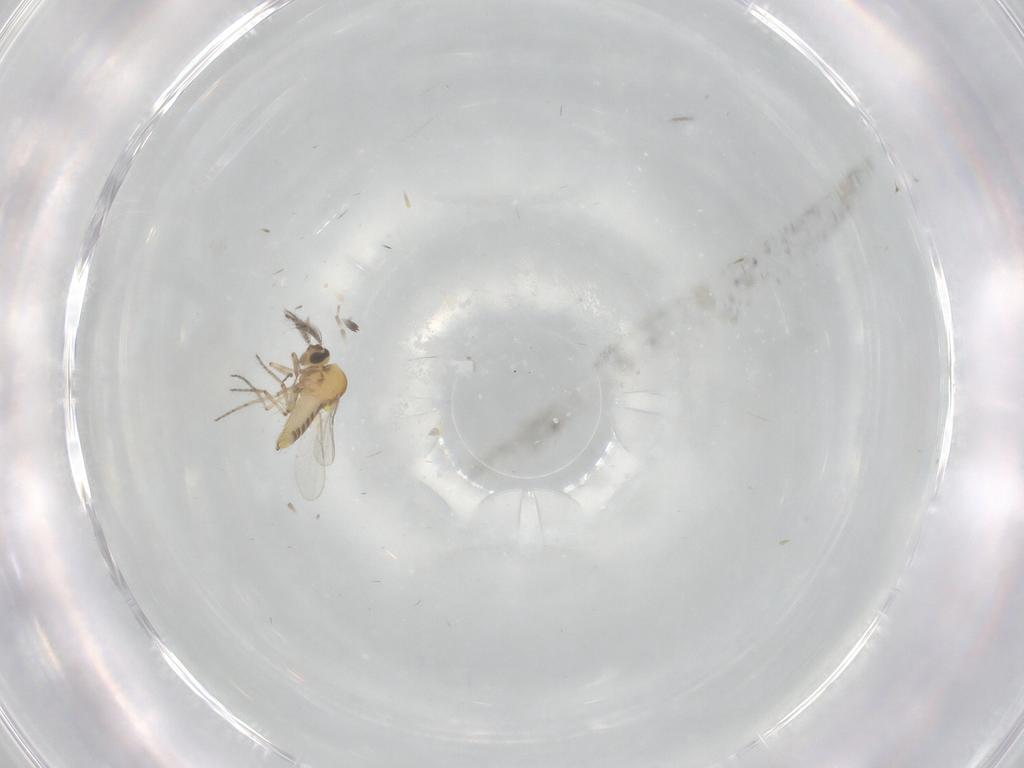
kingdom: Animalia
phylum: Arthropoda
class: Insecta
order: Diptera
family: Ceratopogonidae
